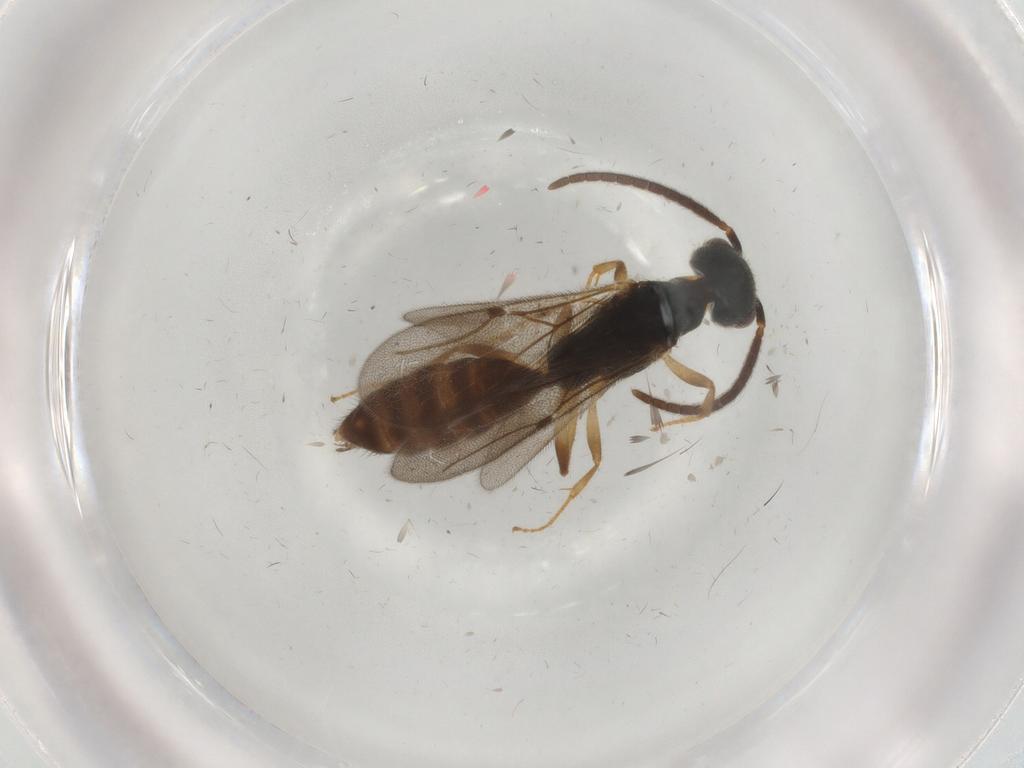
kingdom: Animalia
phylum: Arthropoda
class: Insecta
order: Hymenoptera
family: Bethylidae
